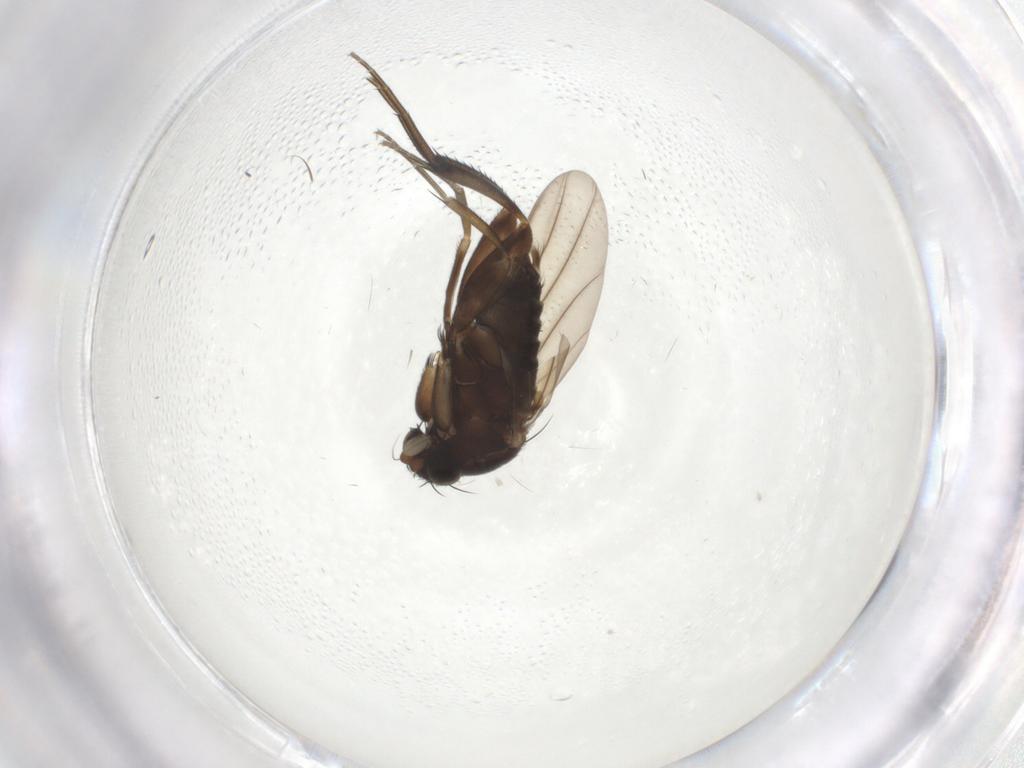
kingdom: Animalia
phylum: Arthropoda
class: Insecta
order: Diptera
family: Phoridae
